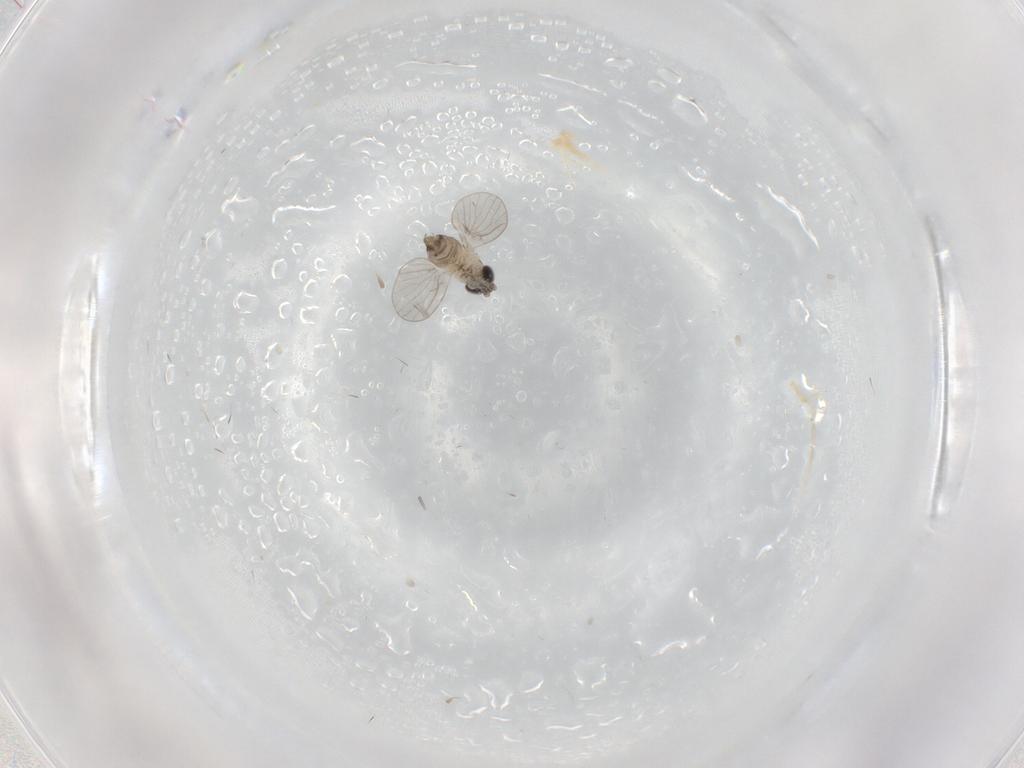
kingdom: Animalia
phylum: Arthropoda
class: Insecta
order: Diptera
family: Psychodidae
